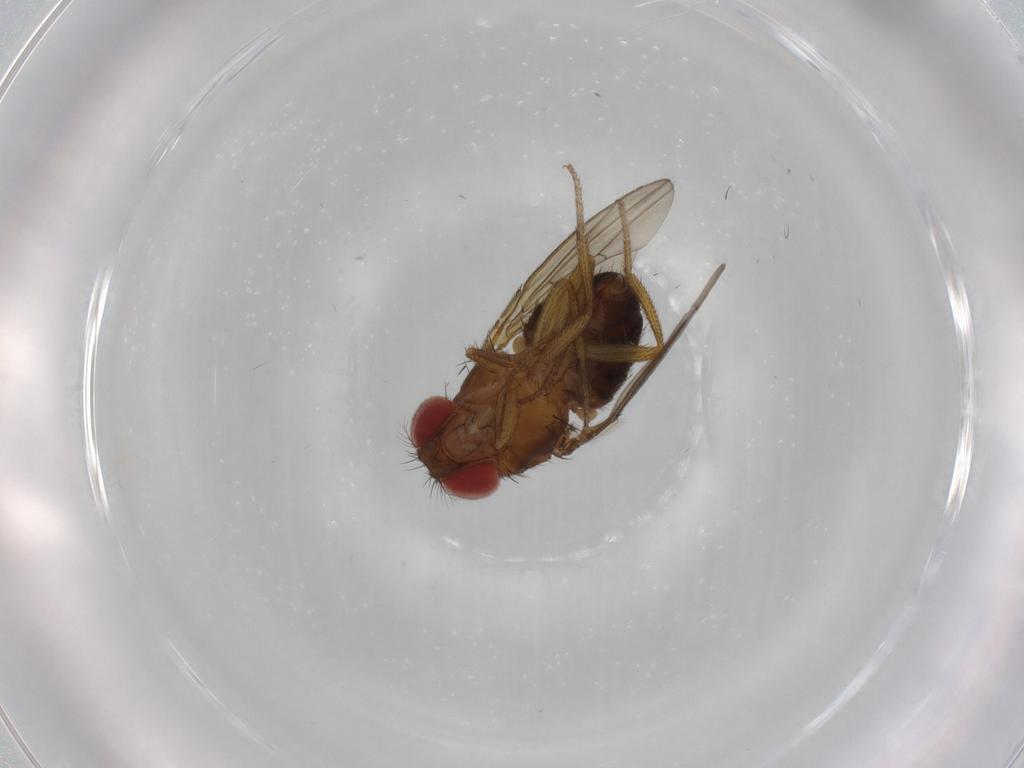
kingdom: Animalia
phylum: Arthropoda
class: Insecta
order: Diptera
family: Drosophilidae
